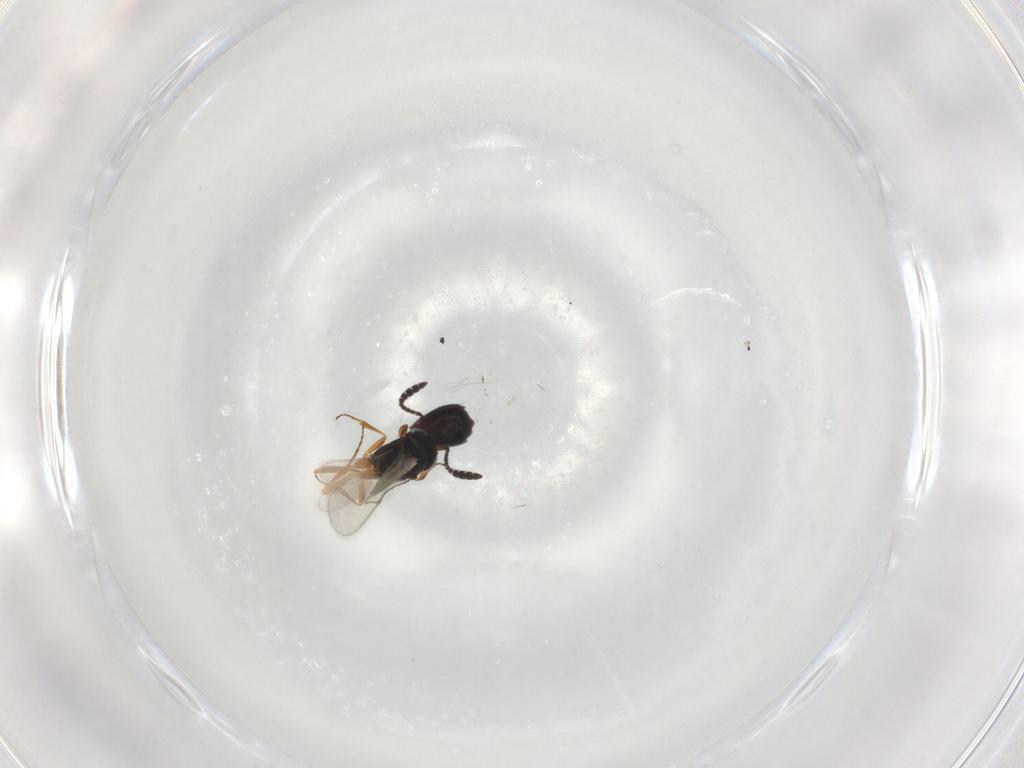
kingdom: Animalia
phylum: Arthropoda
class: Insecta
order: Hymenoptera
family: Scelionidae
